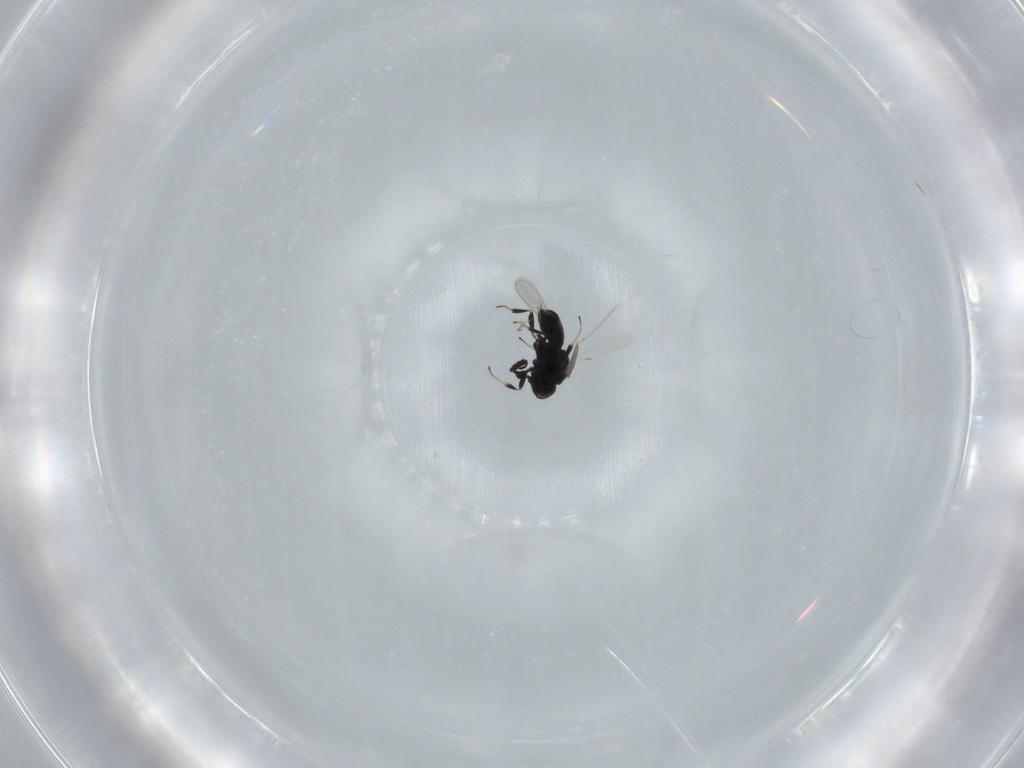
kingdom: Animalia
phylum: Arthropoda
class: Insecta
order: Hymenoptera
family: Scelionidae
